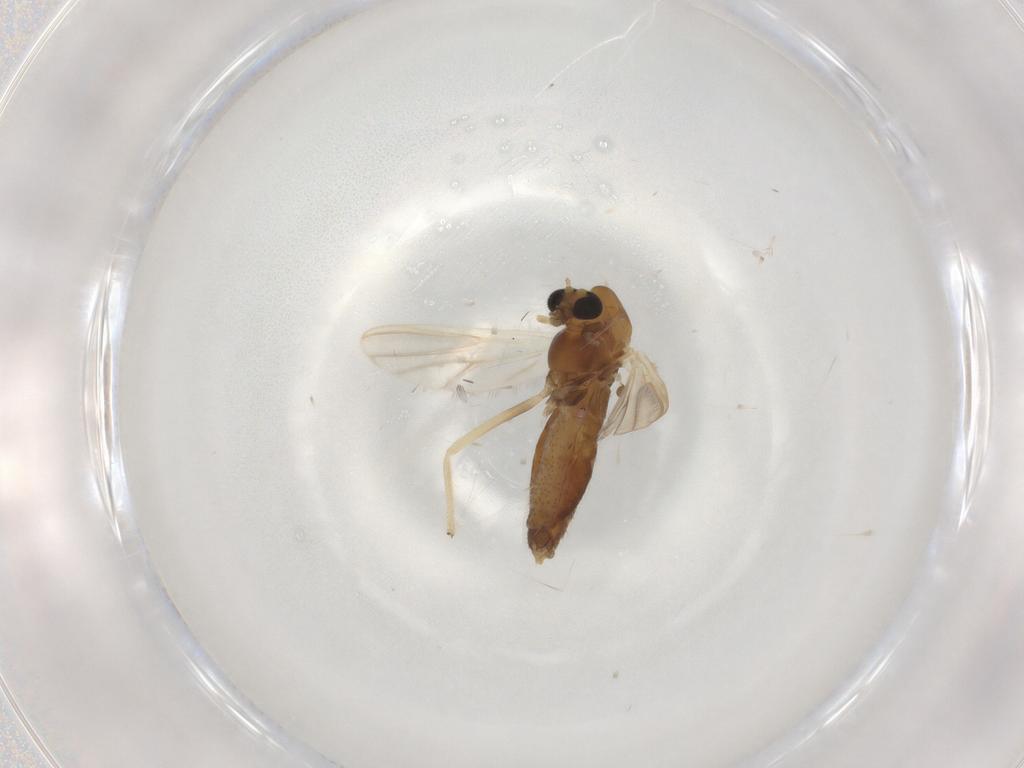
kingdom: Animalia
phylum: Arthropoda
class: Insecta
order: Diptera
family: Chironomidae
